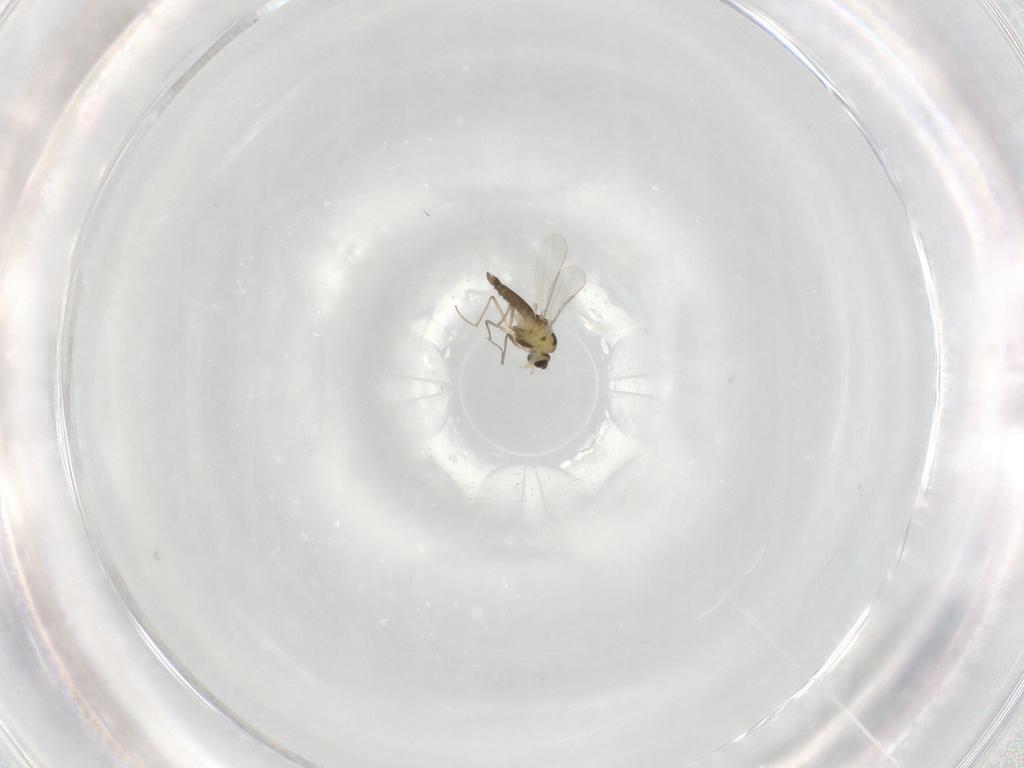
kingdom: Animalia
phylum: Arthropoda
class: Insecta
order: Diptera
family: Chironomidae
